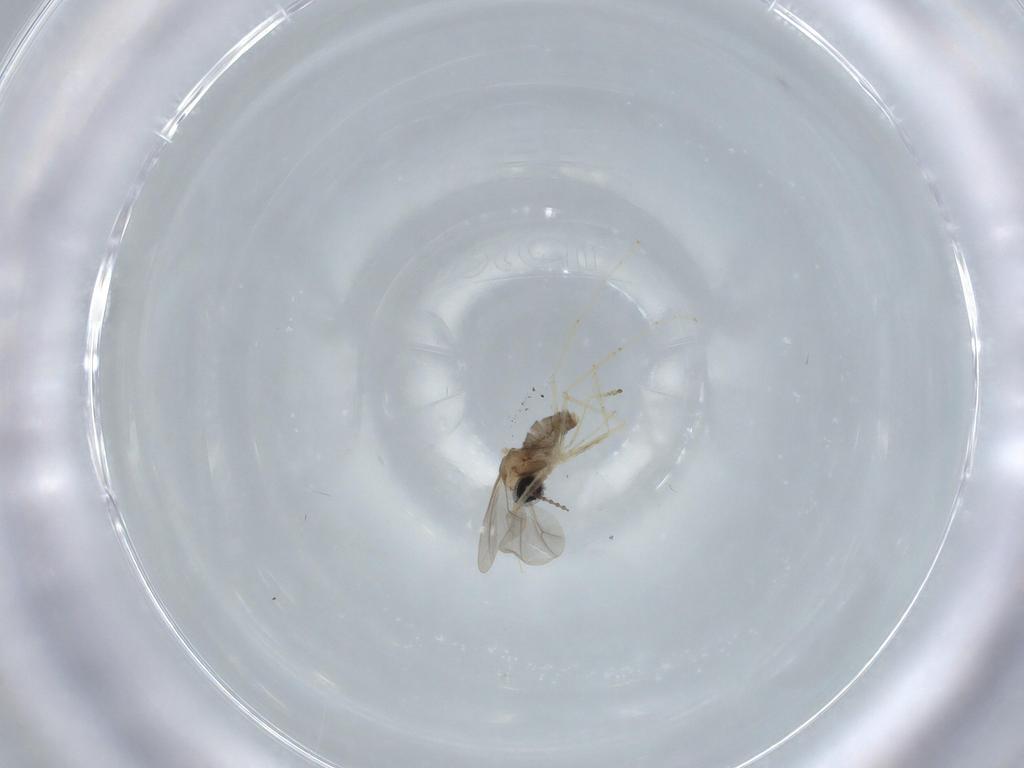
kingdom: Animalia
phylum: Arthropoda
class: Insecta
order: Diptera
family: Cecidomyiidae
